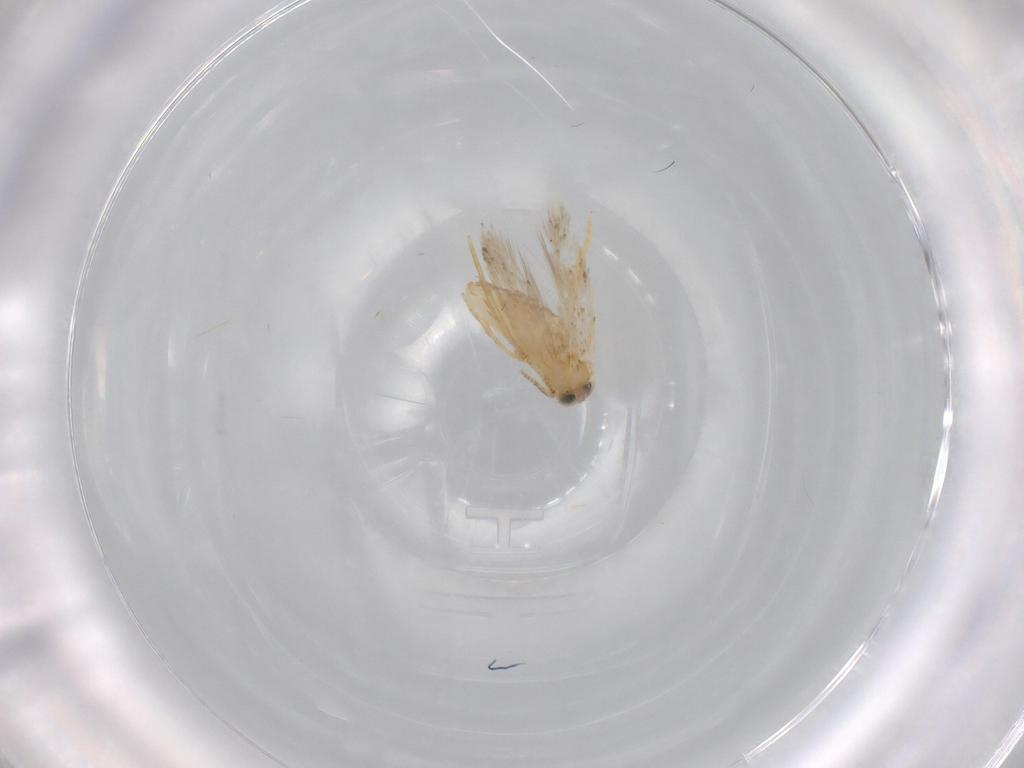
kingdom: Animalia
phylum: Arthropoda
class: Insecta
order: Lepidoptera
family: Nepticulidae
